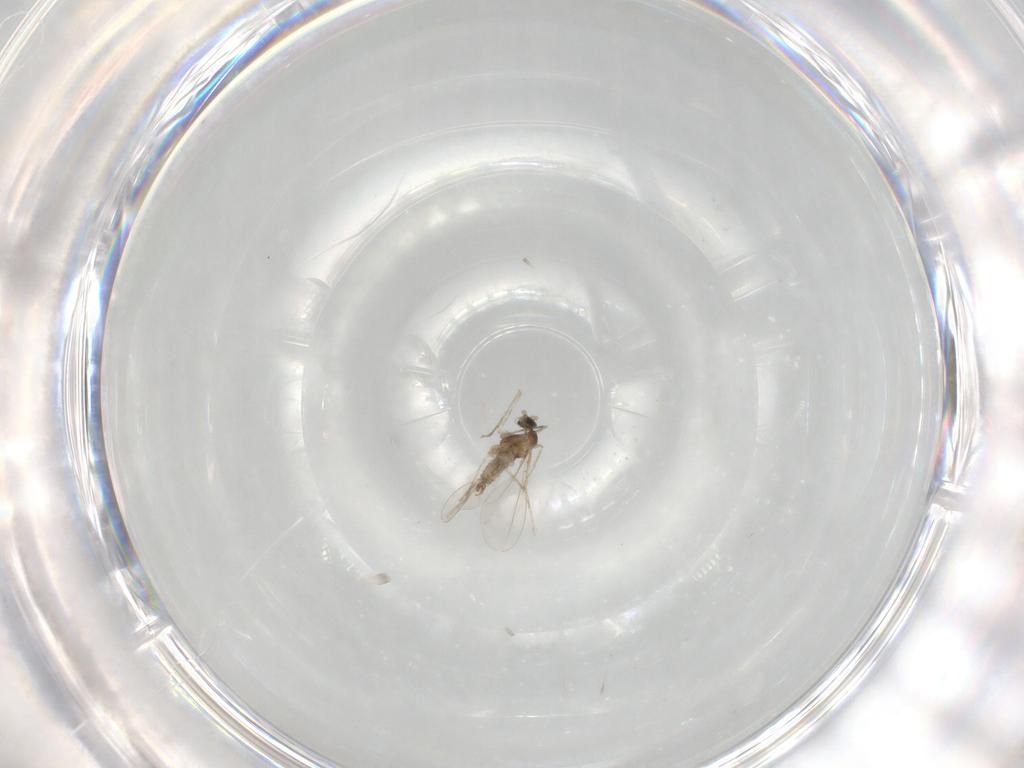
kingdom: Animalia
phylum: Arthropoda
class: Insecta
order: Diptera
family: Cecidomyiidae
